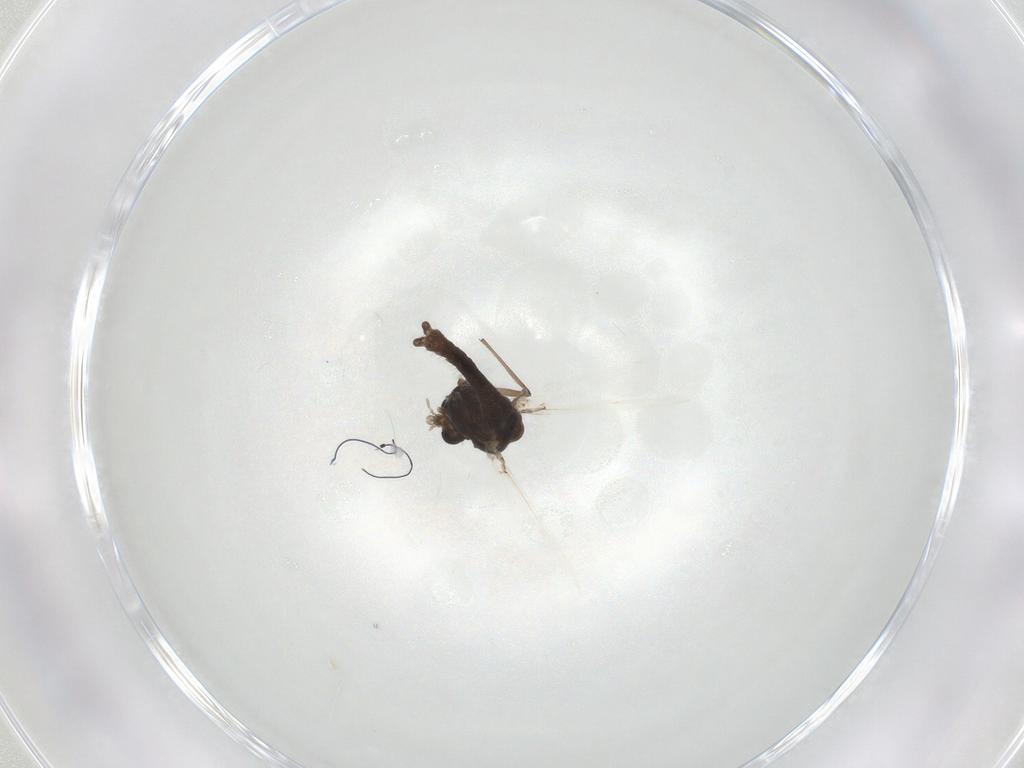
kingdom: Animalia
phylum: Arthropoda
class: Insecta
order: Diptera
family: Chironomidae
